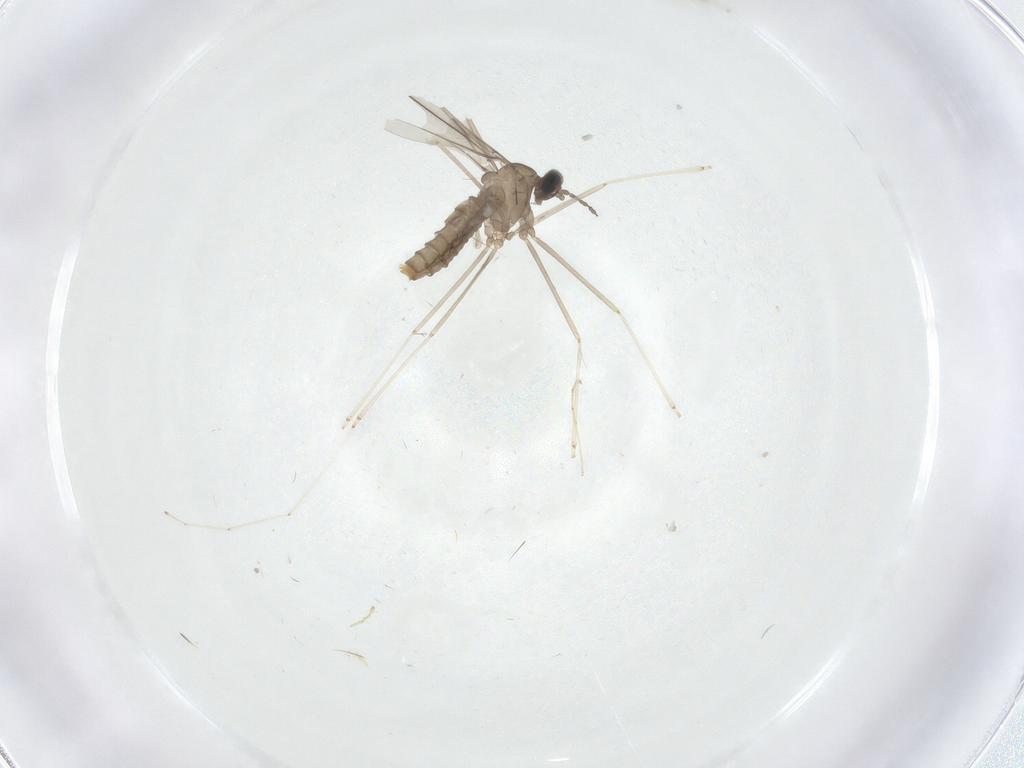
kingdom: Animalia
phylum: Arthropoda
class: Insecta
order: Diptera
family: Cecidomyiidae
